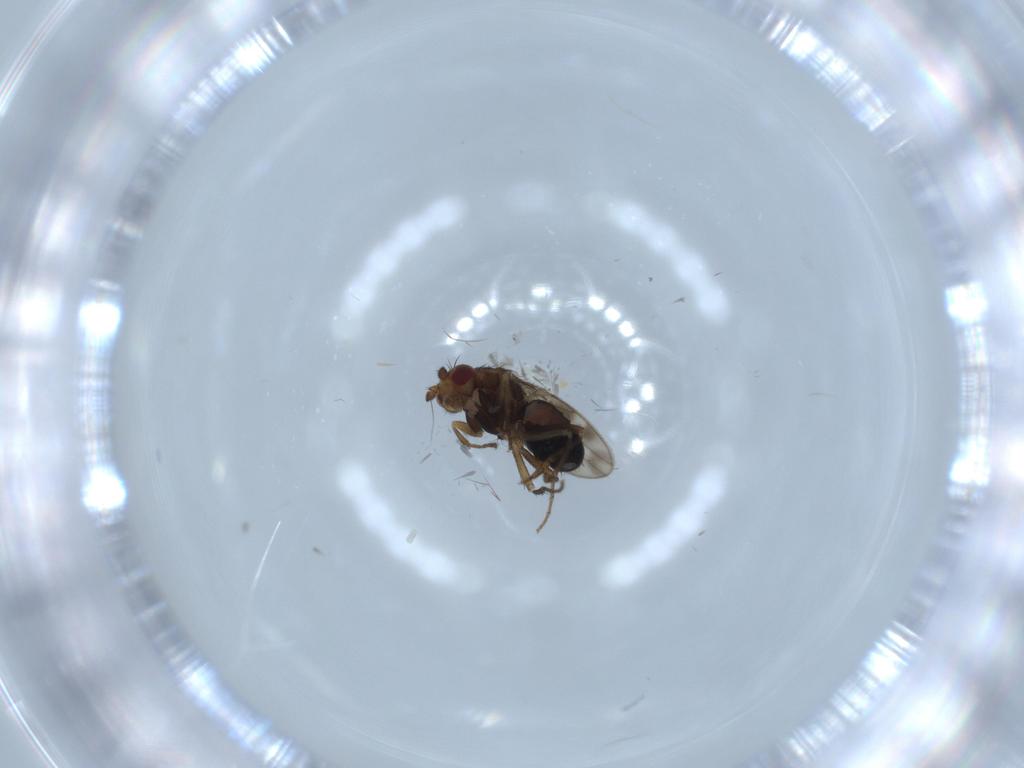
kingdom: Animalia
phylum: Arthropoda
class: Insecta
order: Diptera
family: Sphaeroceridae
